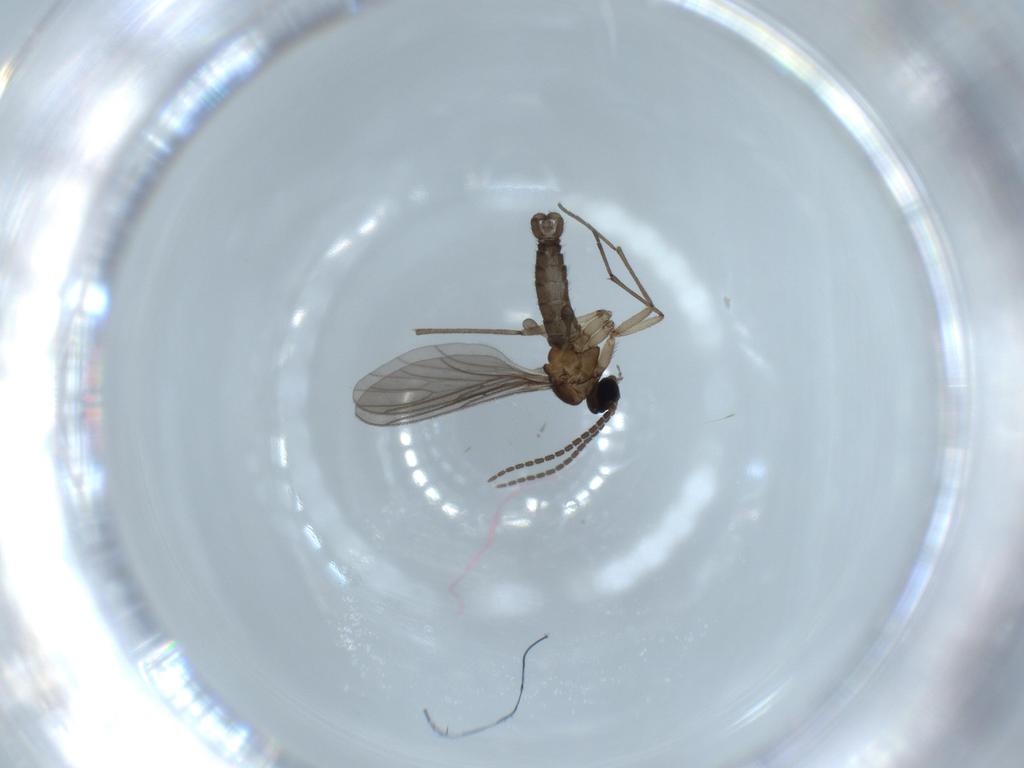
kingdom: Animalia
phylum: Arthropoda
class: Insecta
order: Diptera
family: Sciaridae
